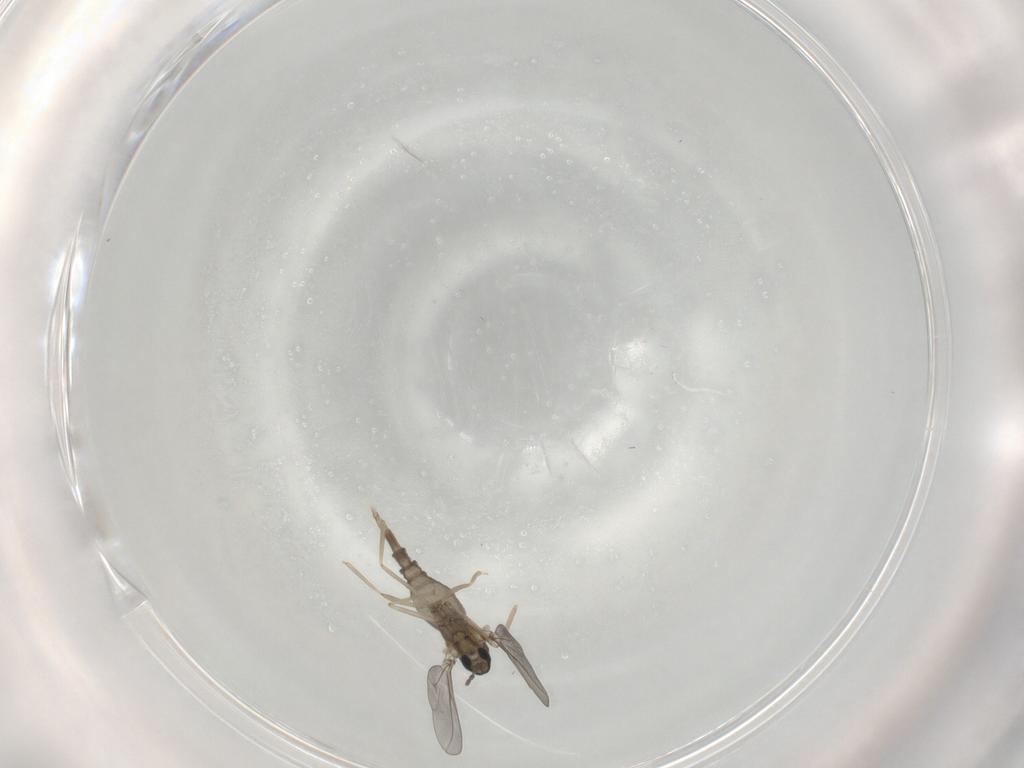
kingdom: Animalia
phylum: Arthropoda
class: Insecta
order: Diptera
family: Cecidomyiidae
